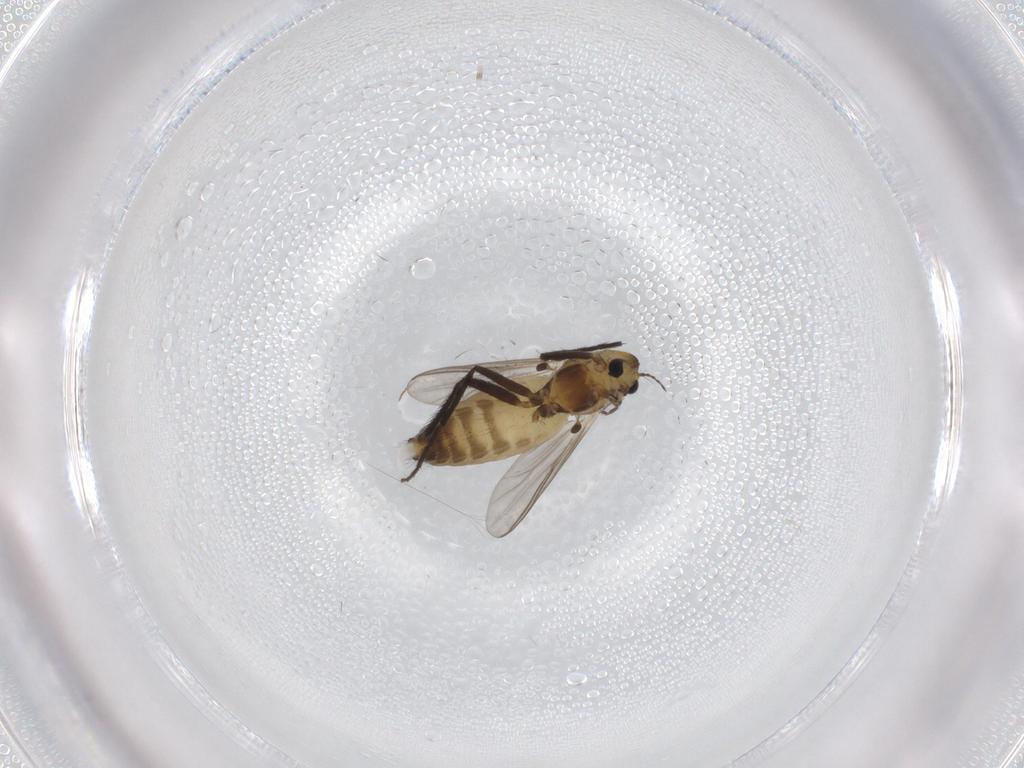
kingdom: Animalia
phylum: Arthropoda
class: Insecta
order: Diptera
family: Chironomidae
